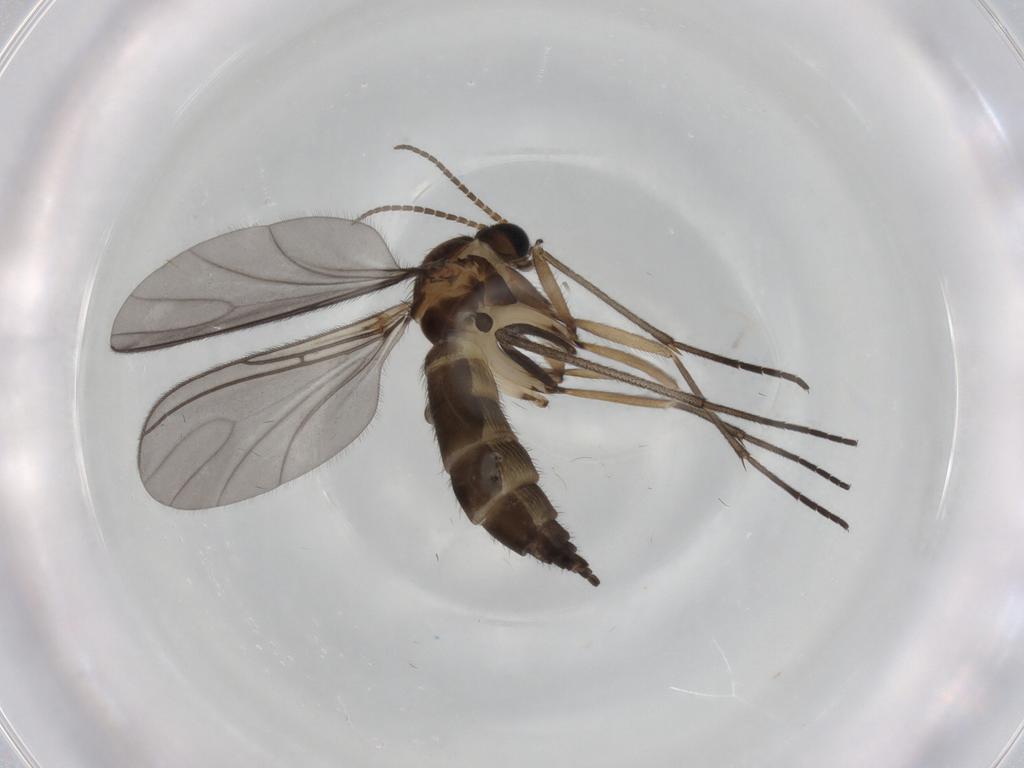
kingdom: Animalia
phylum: Arthropoda
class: Insecta
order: Diptera
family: Sciaridae
